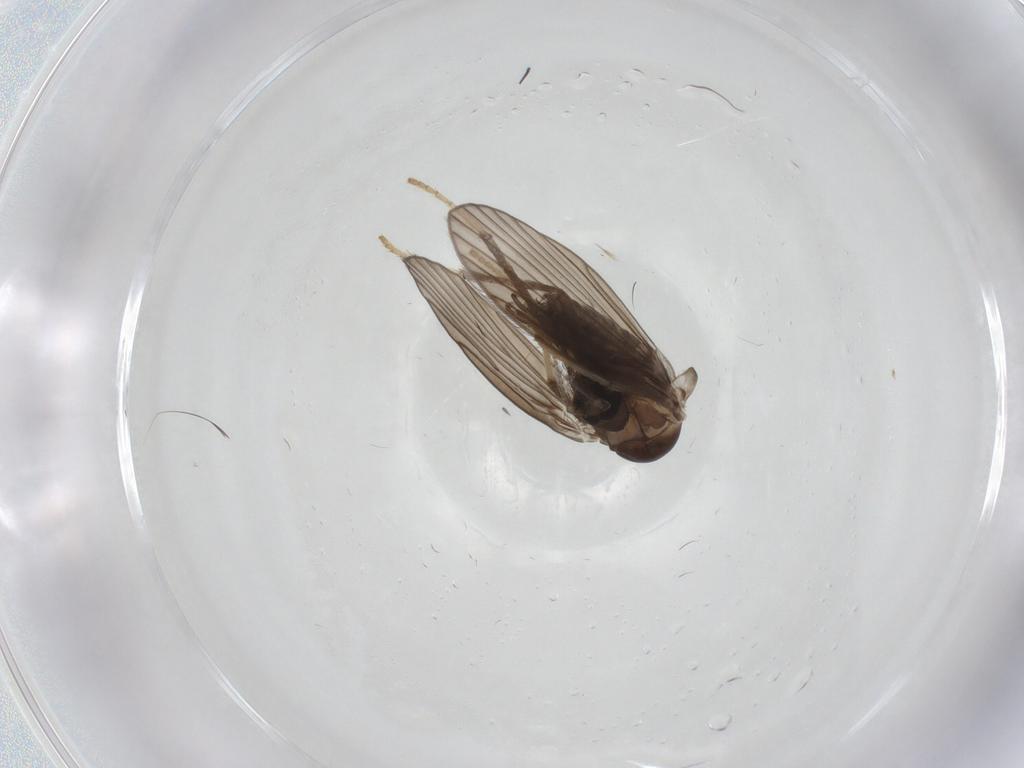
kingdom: Animalia
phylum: Arthropoda
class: Insecta
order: Diptera
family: Psychodidae
